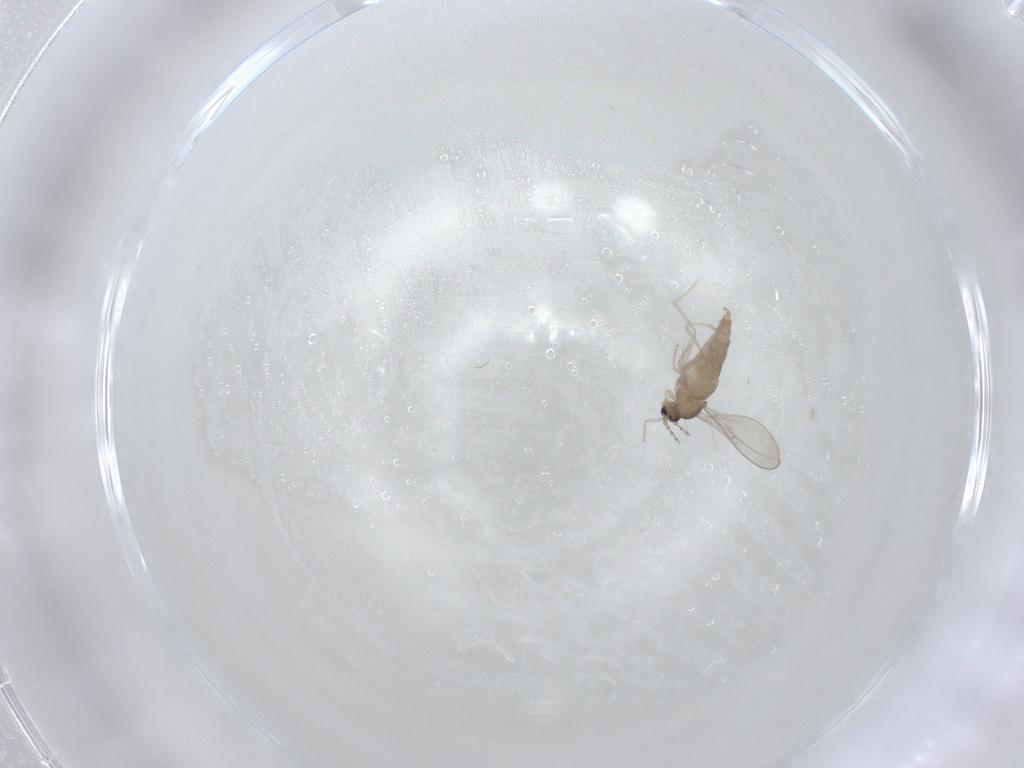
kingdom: Animalia
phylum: Arthropoda
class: Insecta
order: Diptera
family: Cecidomyiidae
